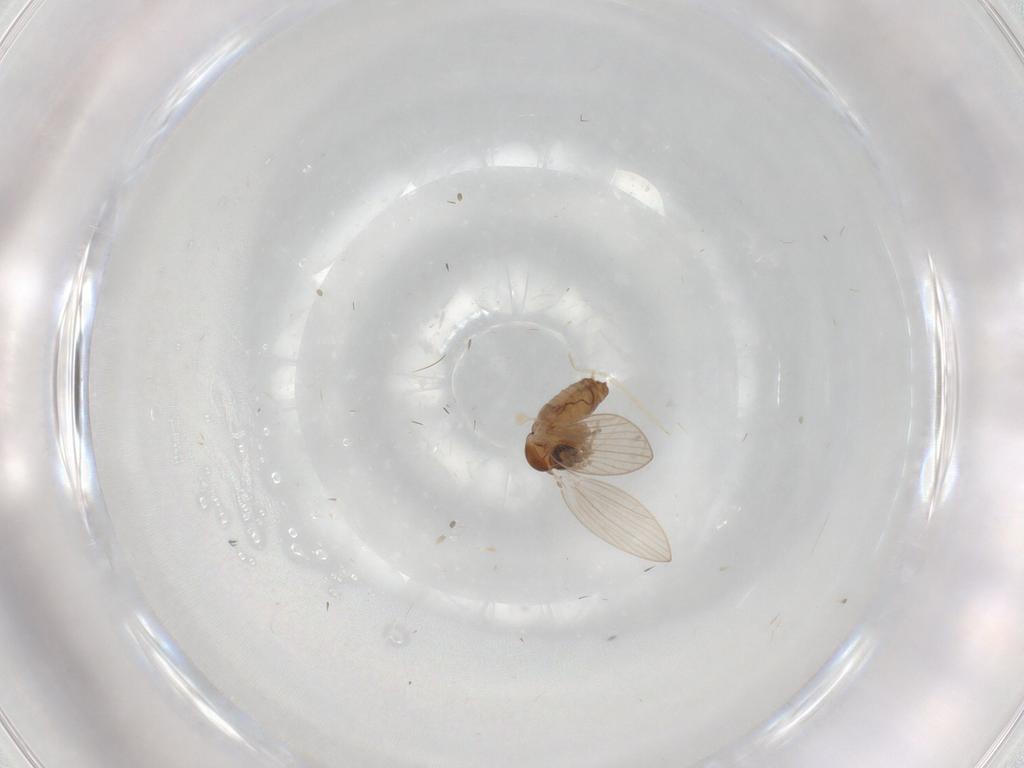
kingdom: Animalia
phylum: Arthropoda
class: Insecta
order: Diptera
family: Psychodidae
